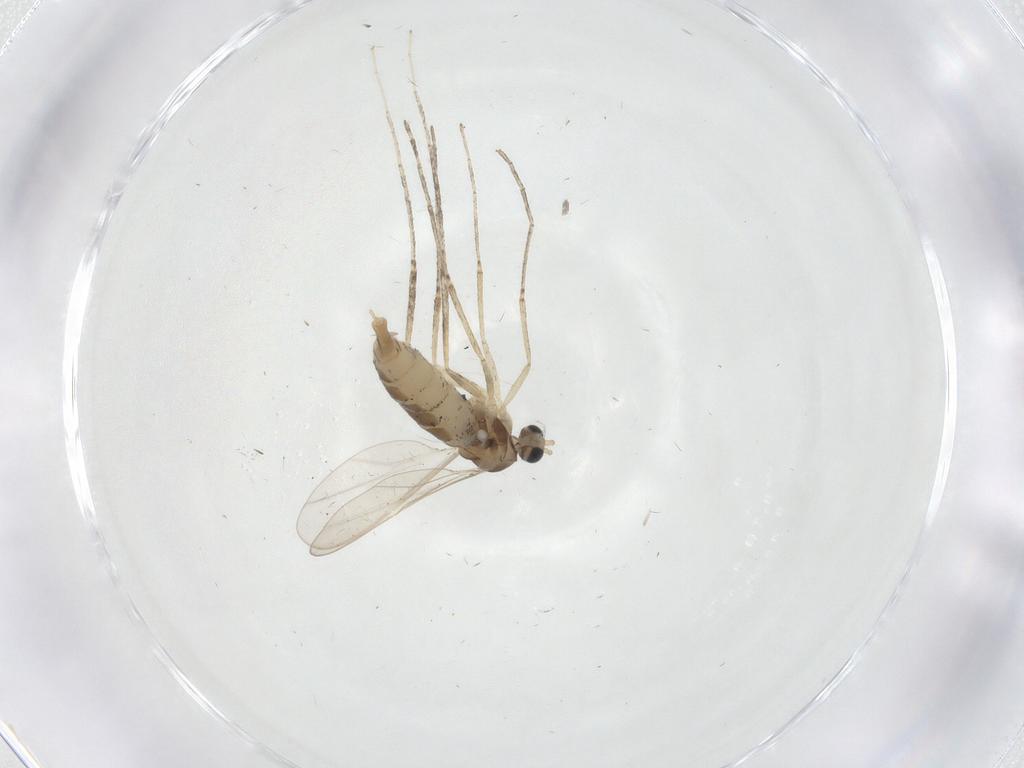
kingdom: Animalia
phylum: Arthropoda
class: Insecta
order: Diptera
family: Cecidomyiidae
